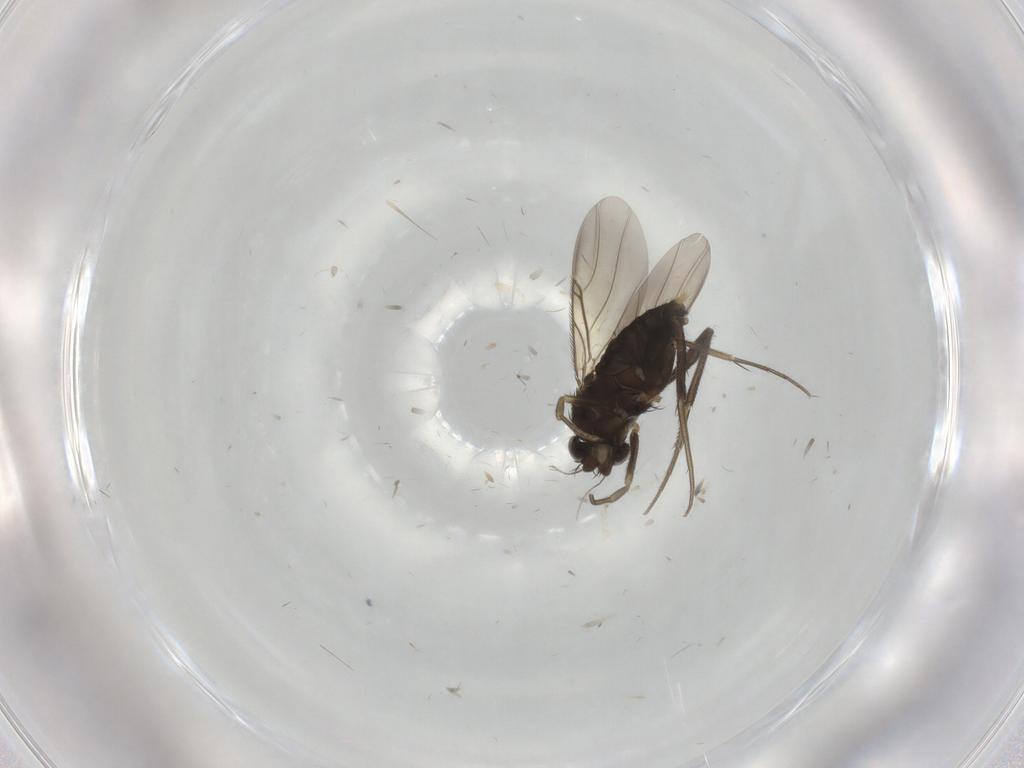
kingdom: Animalia
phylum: Arthropoda
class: Insecta
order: Diptera
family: Phoridae
